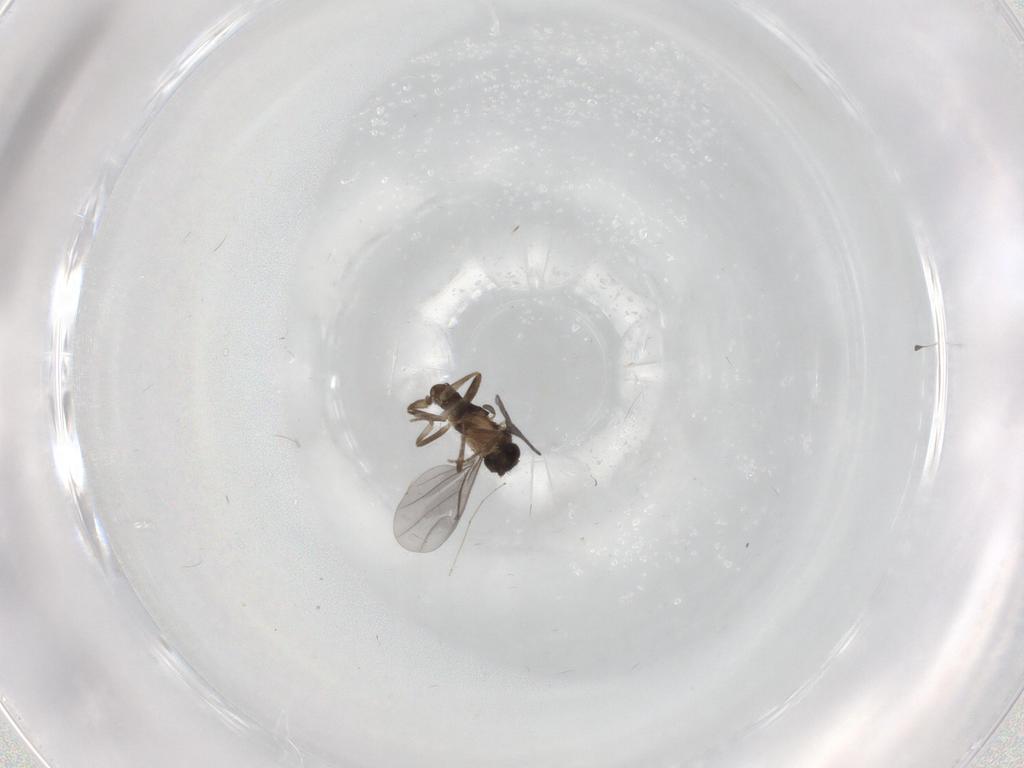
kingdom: Animalia
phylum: Arthropoda
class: Insecta
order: Diptera
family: Cecidomyiidae
